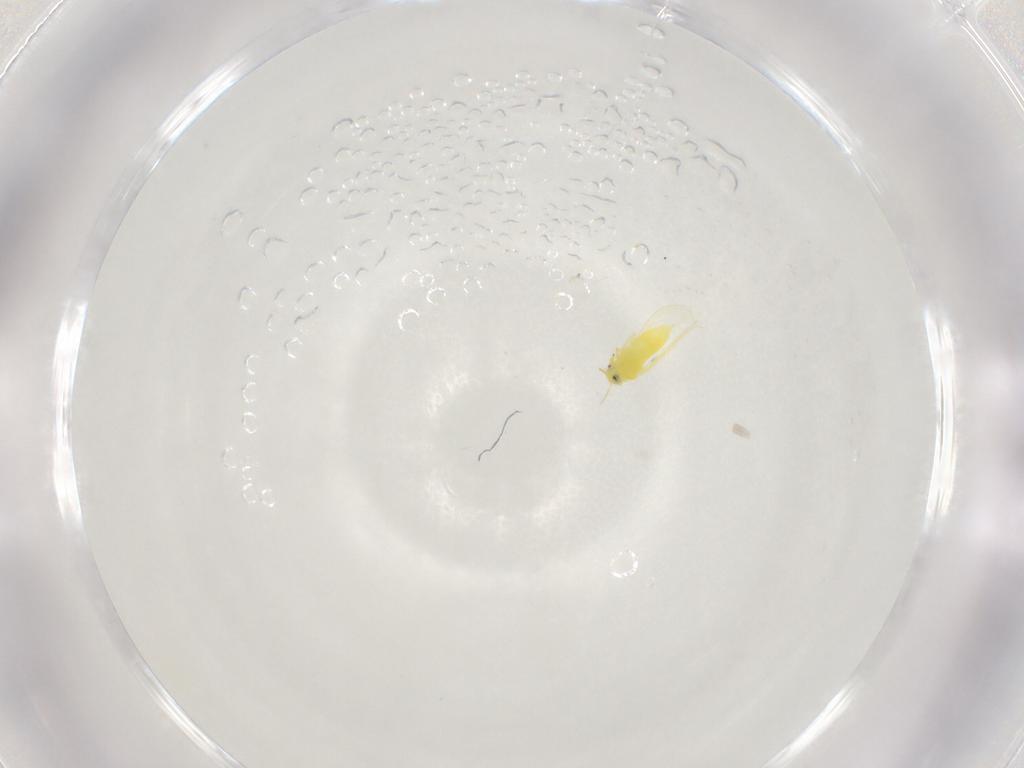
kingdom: Animalia
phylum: Arthropoda
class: Insecta
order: Hemiptera
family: Aleyrodidae
